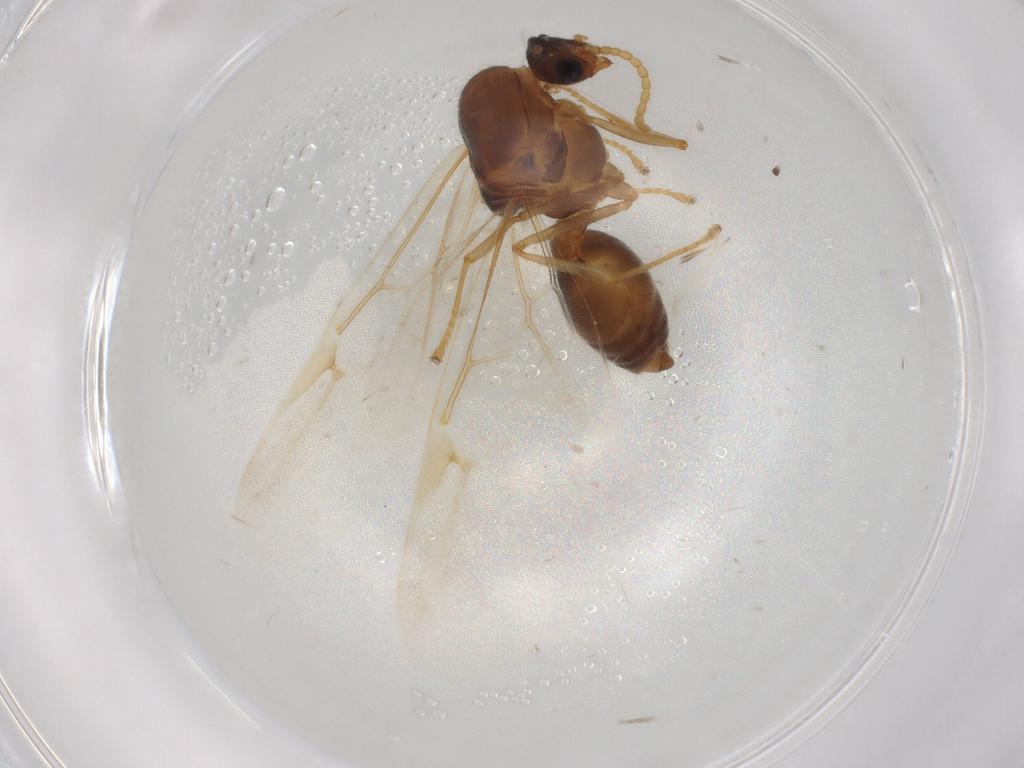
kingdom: Animalia
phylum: Arthropoda
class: Insecta
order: Hymenoptera
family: Formicidae
